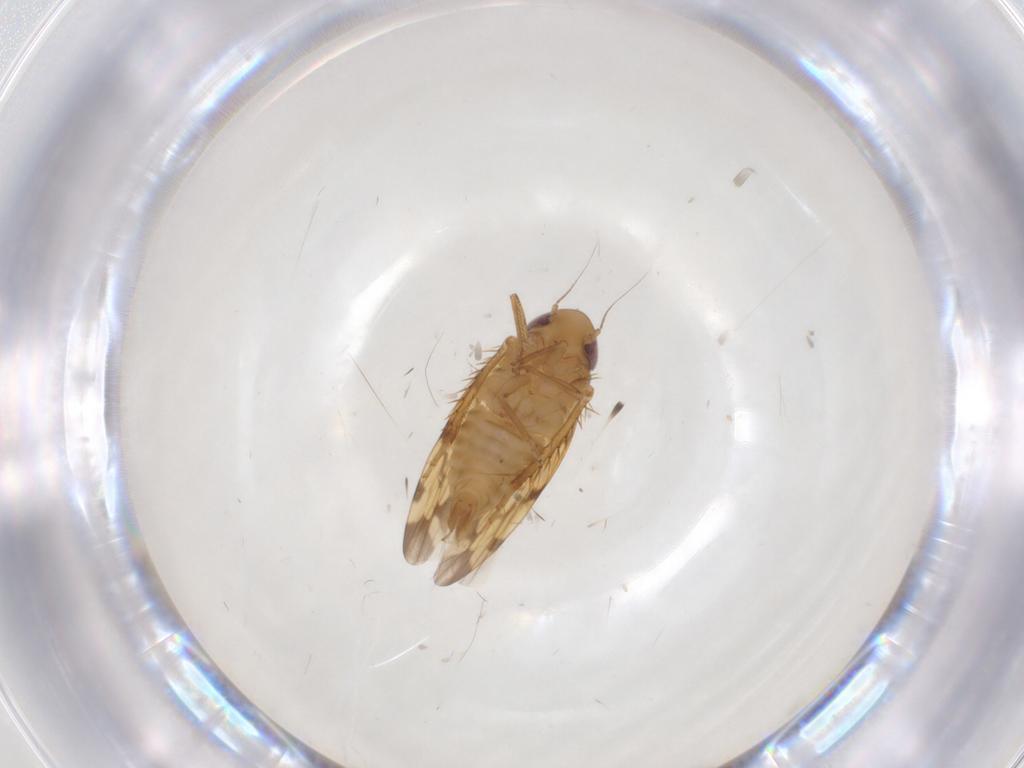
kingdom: Animalia
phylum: Arthropoda
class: Insecta
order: Hemiptera
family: Cicadellidae
